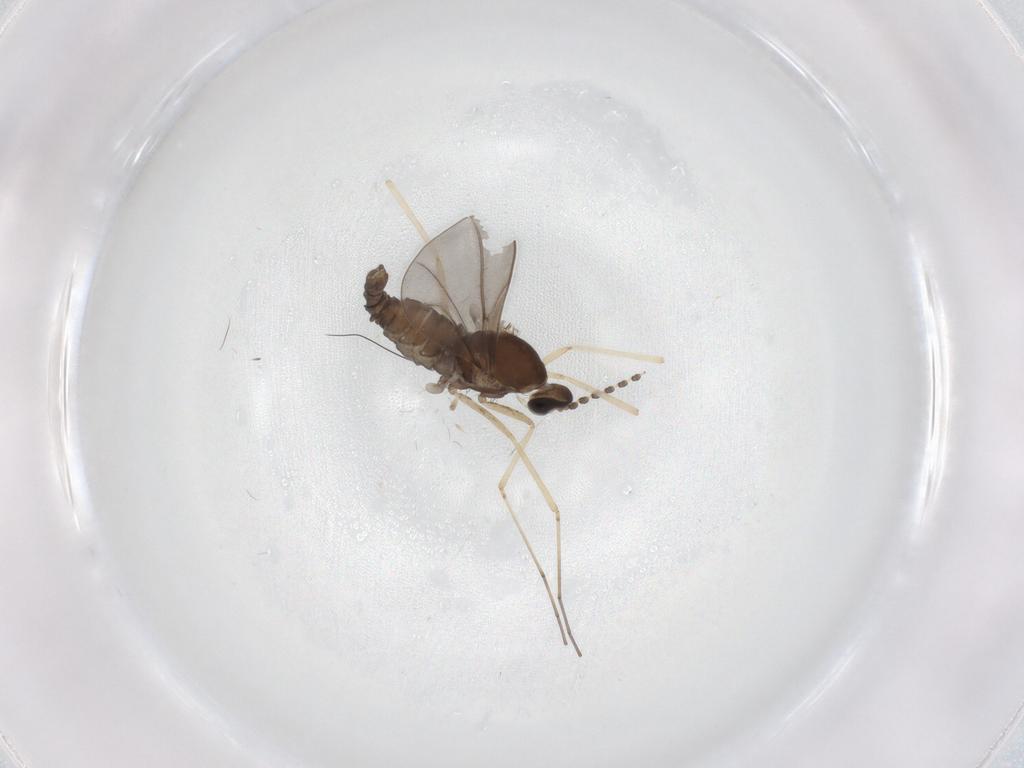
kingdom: Animalia
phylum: Arthropoda
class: Insecta
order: Diptera
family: Cecidomyiidae
